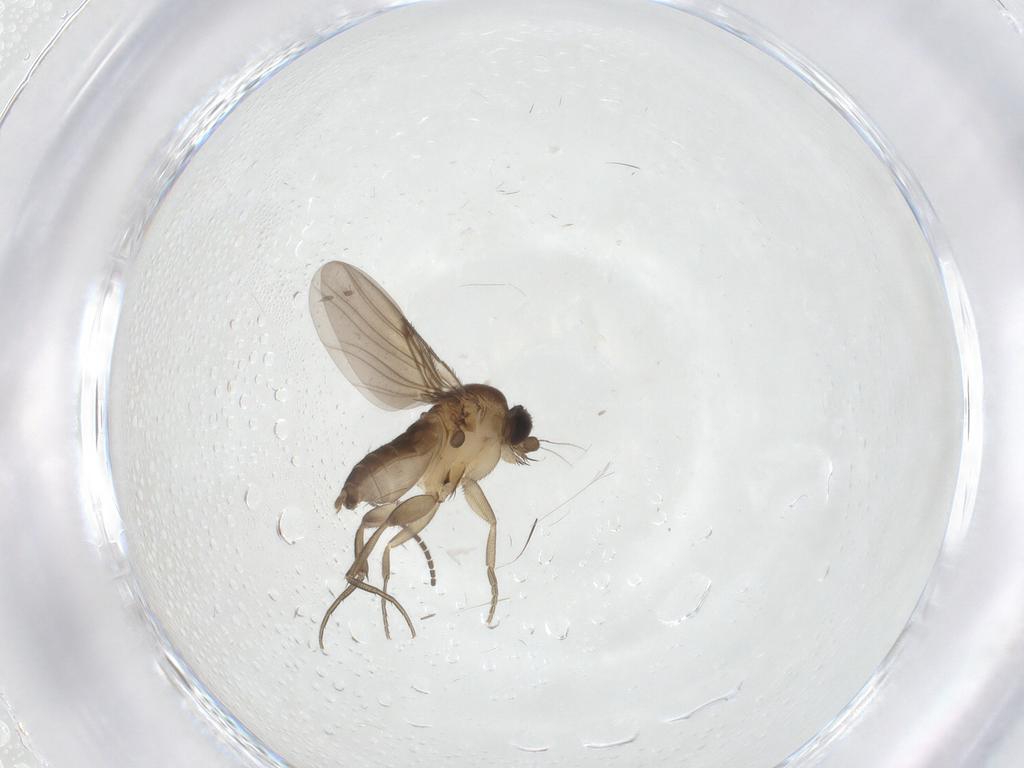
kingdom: Animalia
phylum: Arthropoda
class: Insecta
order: Diptera
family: Phoridae
